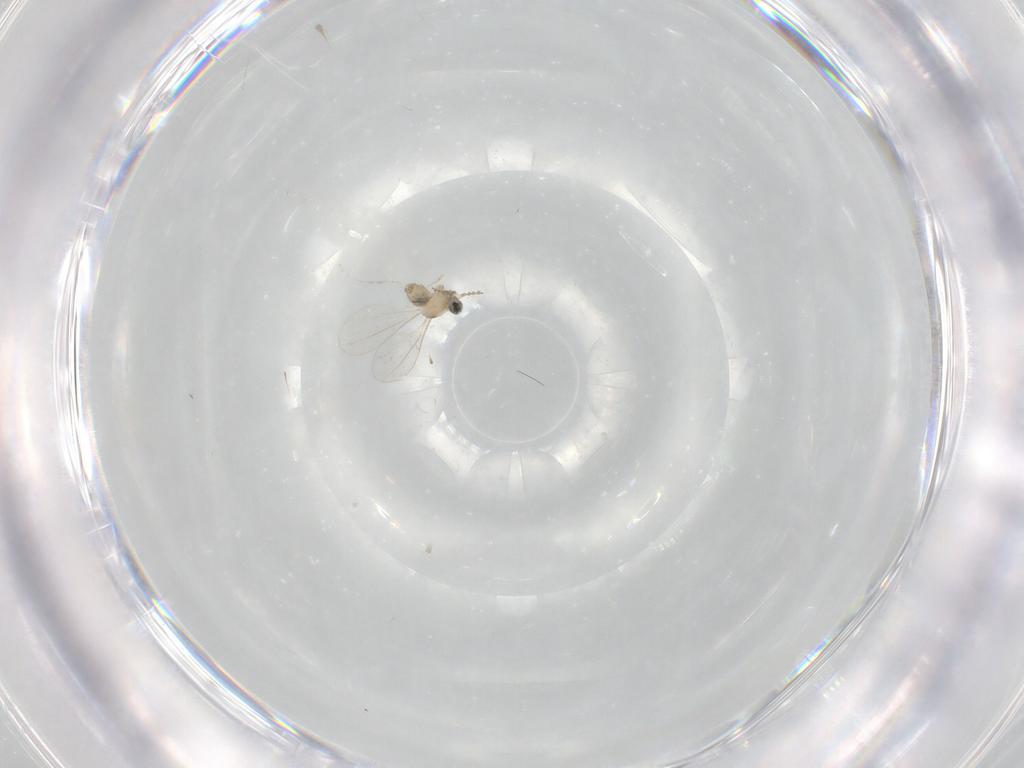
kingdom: Animalia
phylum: Arthropoda
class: Insecta
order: Diptera
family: Cecidomyiidae
